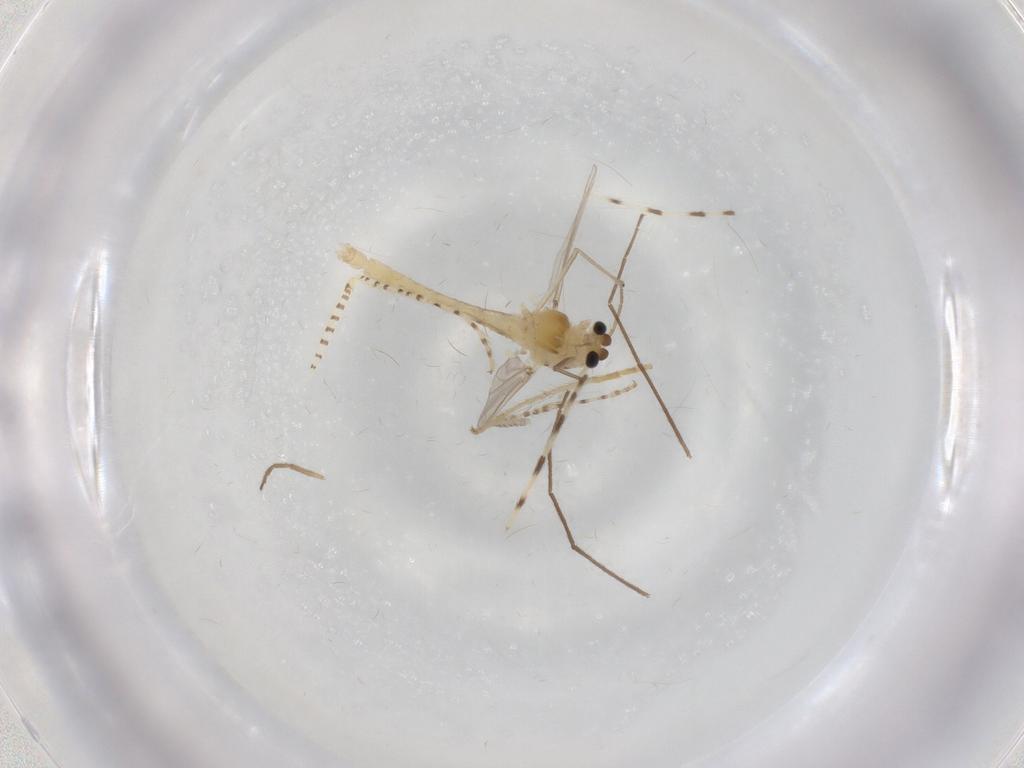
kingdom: Animalia
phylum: Arthropoda
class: Insecta
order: Diptera
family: Chaoboridae
